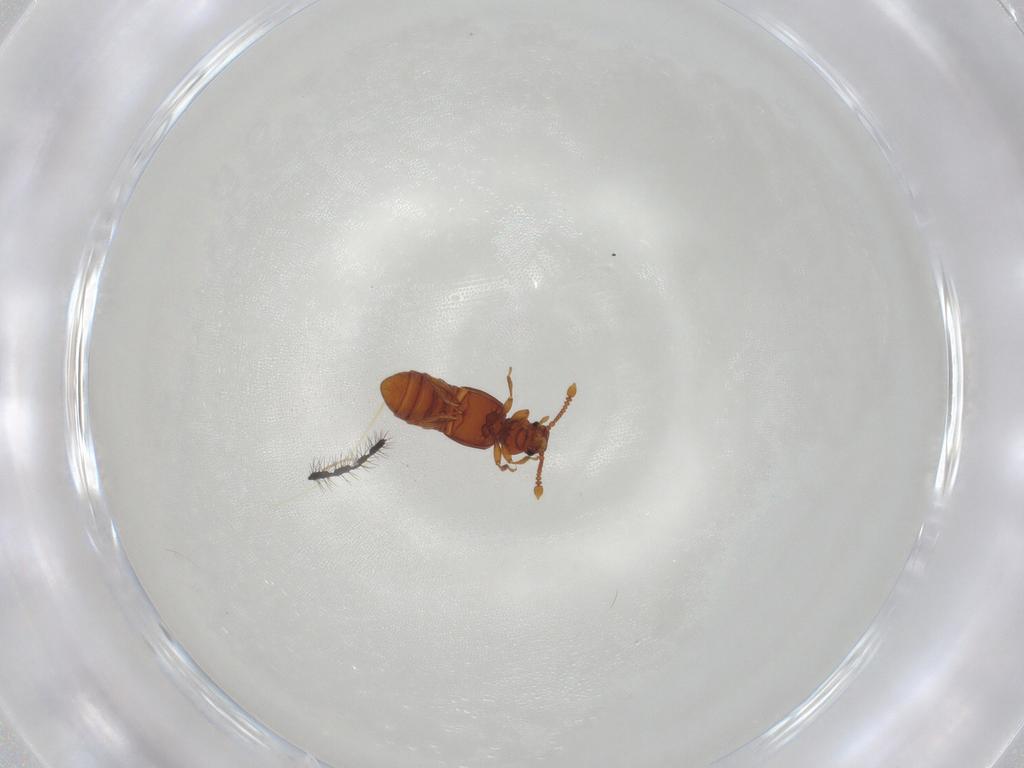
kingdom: Animalia
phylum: Arthropoda
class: Insecta
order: Coleoptera
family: Staphylinidae
